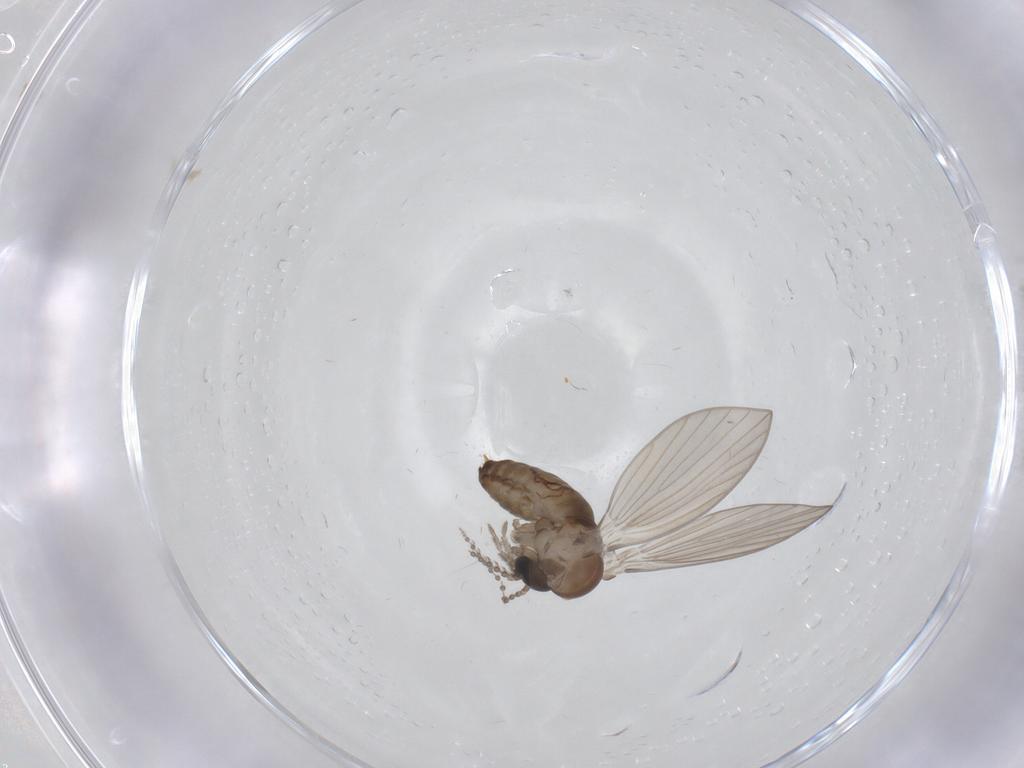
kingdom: Animalia
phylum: Arthropoda
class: Insecta
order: Diptera
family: Psychodidae
